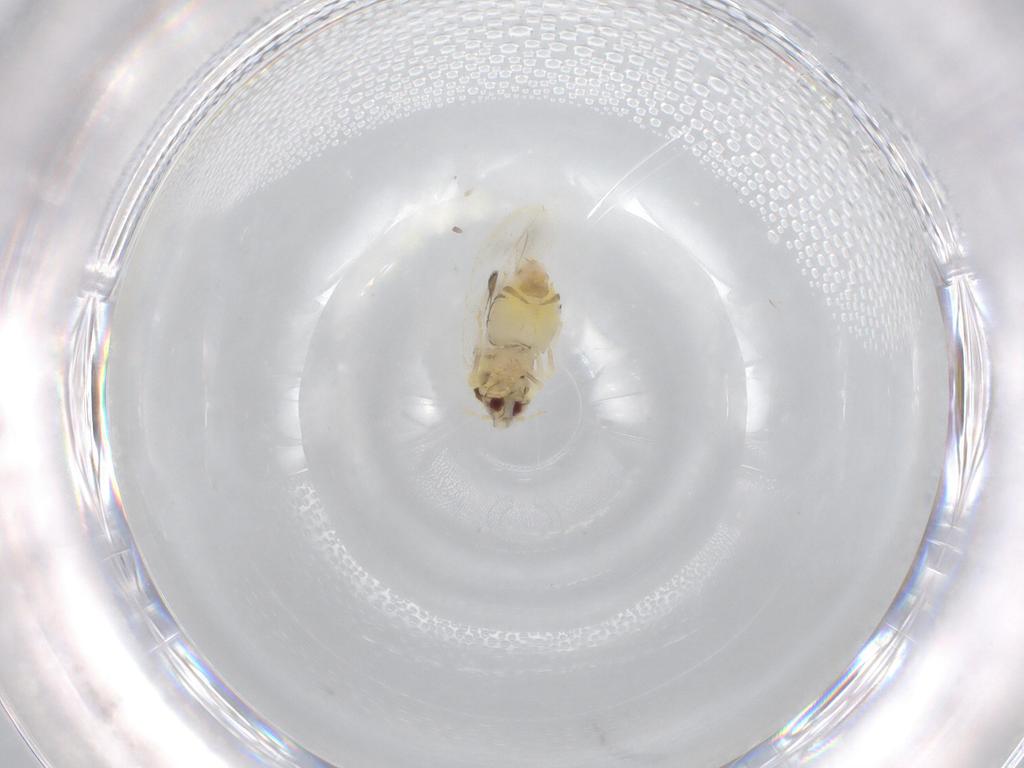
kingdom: Animalia
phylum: Arthropoda
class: Insecta
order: Hemiptera
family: Aleyrodidae
